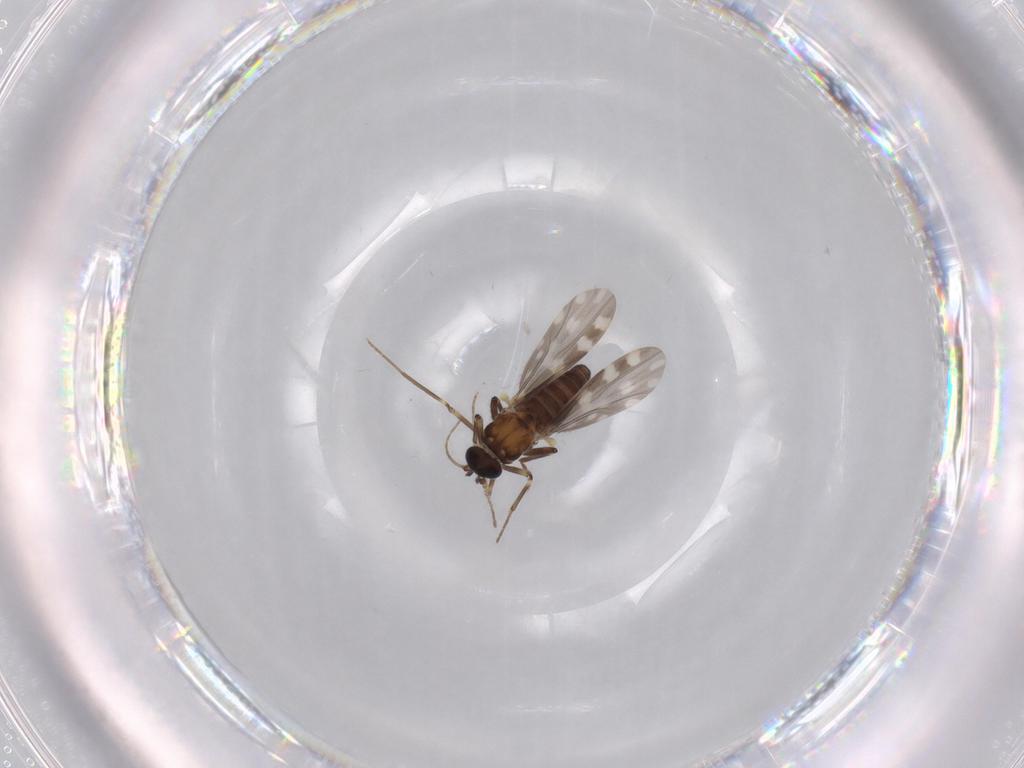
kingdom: Animalia
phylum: Arthropoda
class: Insecta
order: Diptera
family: Ceratopogonidae
